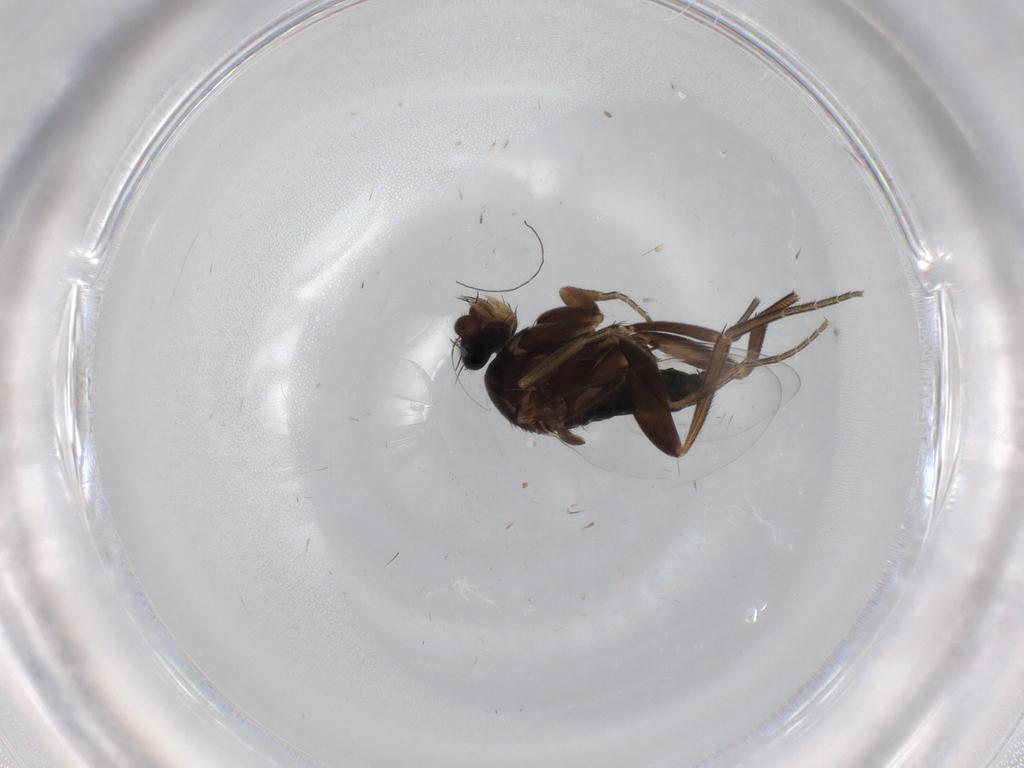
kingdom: Animalia
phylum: Arthropoda
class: Insecta
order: Diptera
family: Phoridae
